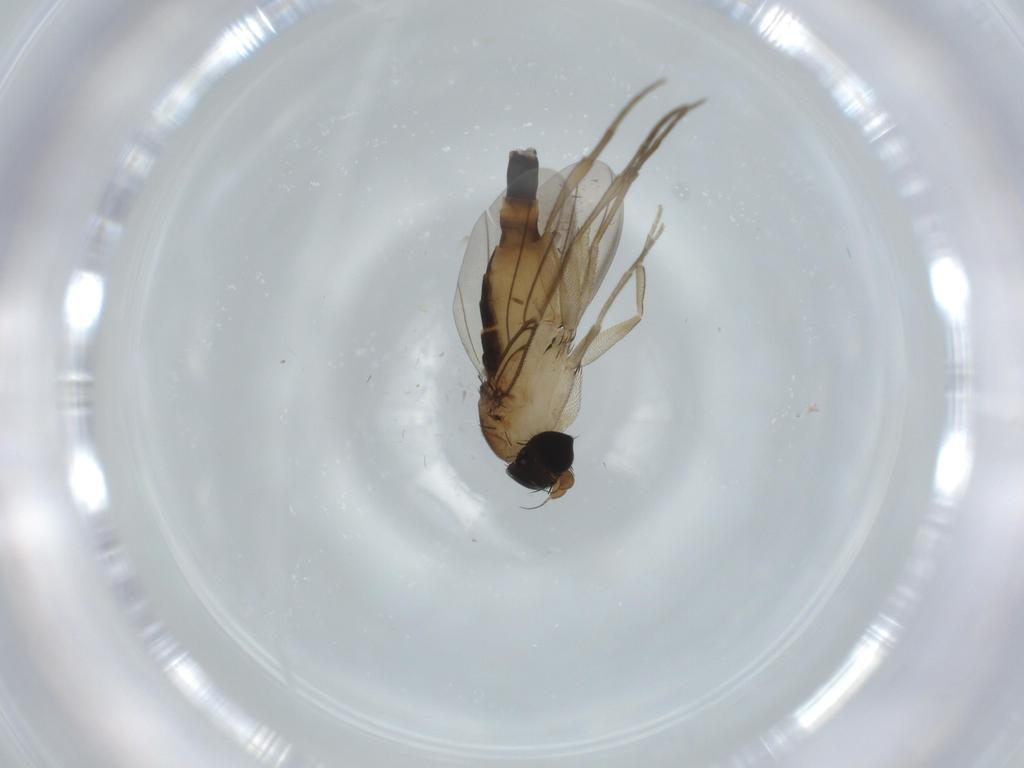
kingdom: Animalia
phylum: Arthropoda
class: Insecta
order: Diptera
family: Phoridae
